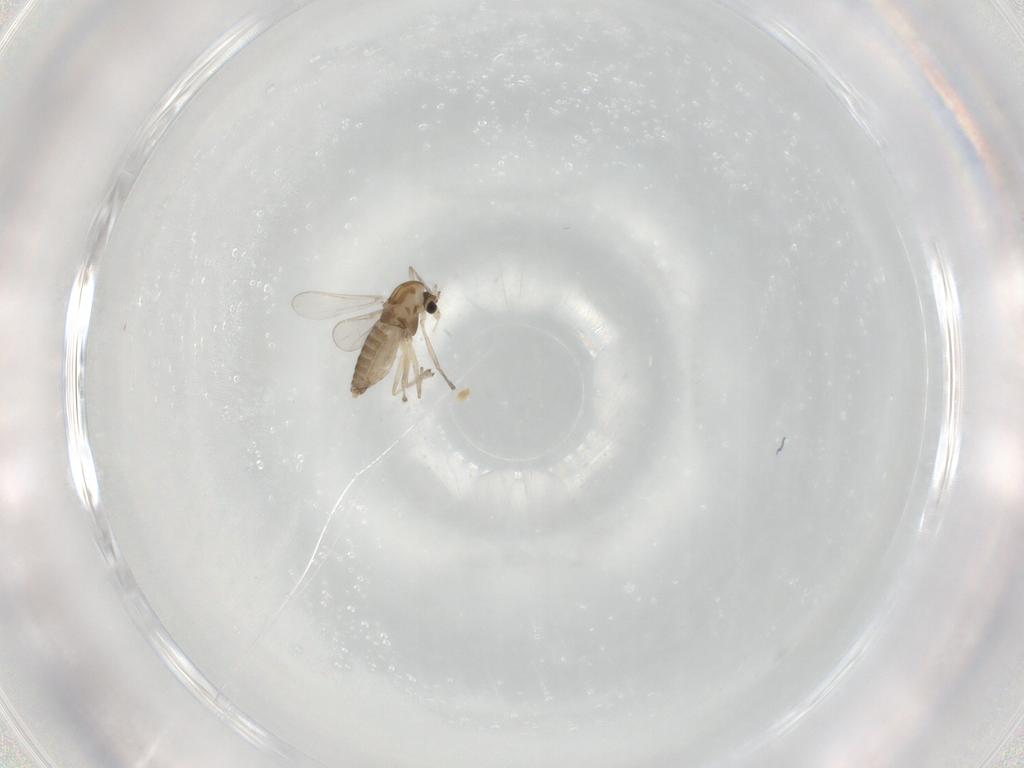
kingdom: Animalia
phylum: Arthropoda
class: Insecta
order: Diptera
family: Chironomidae
